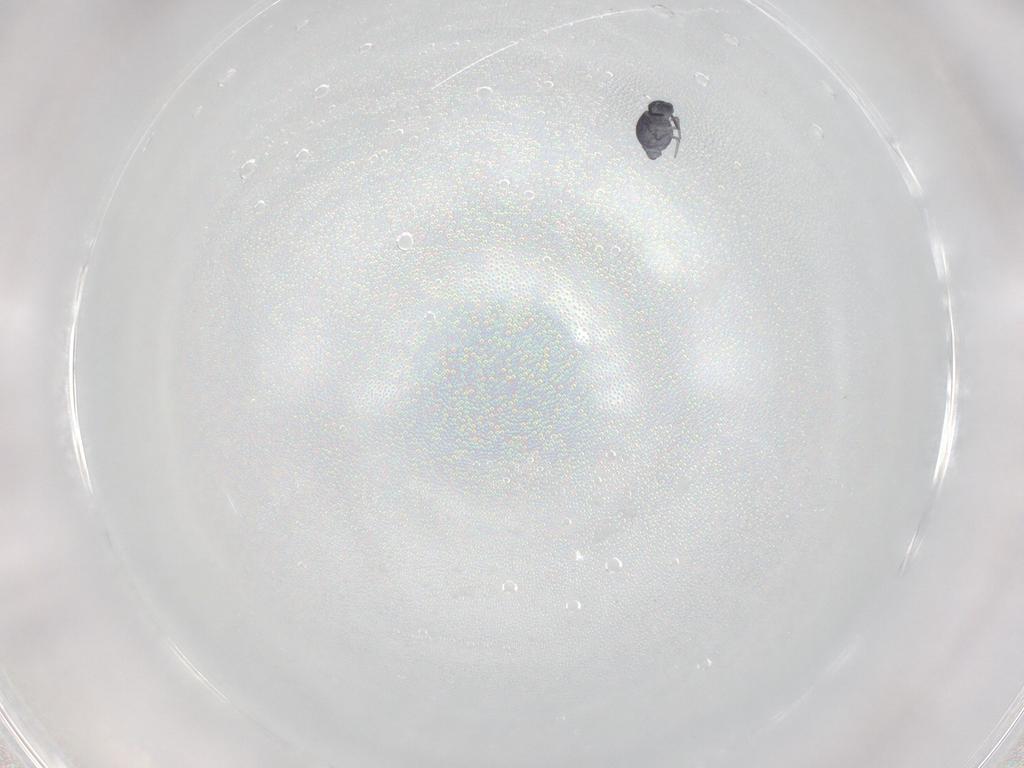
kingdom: Animalia
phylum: Arthropoda
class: Collembola
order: Symphypleona
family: Katiannidae
